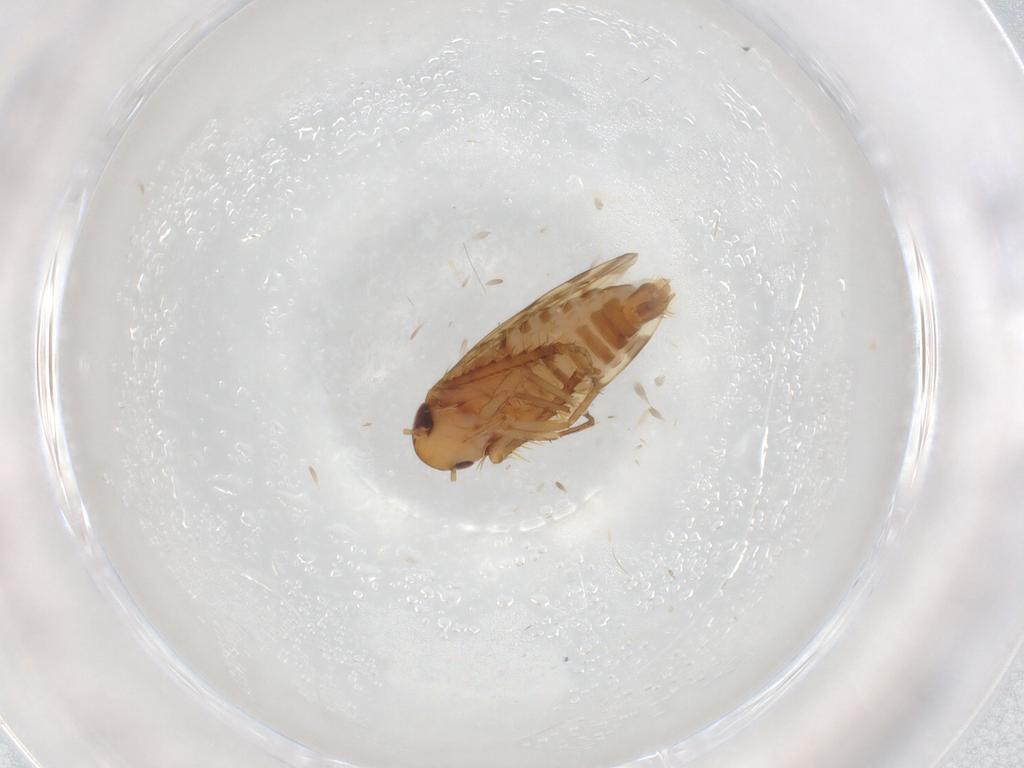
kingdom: Animalia
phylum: Arthropoda
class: Insecta
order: Hemiptera
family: Cicadellidae
